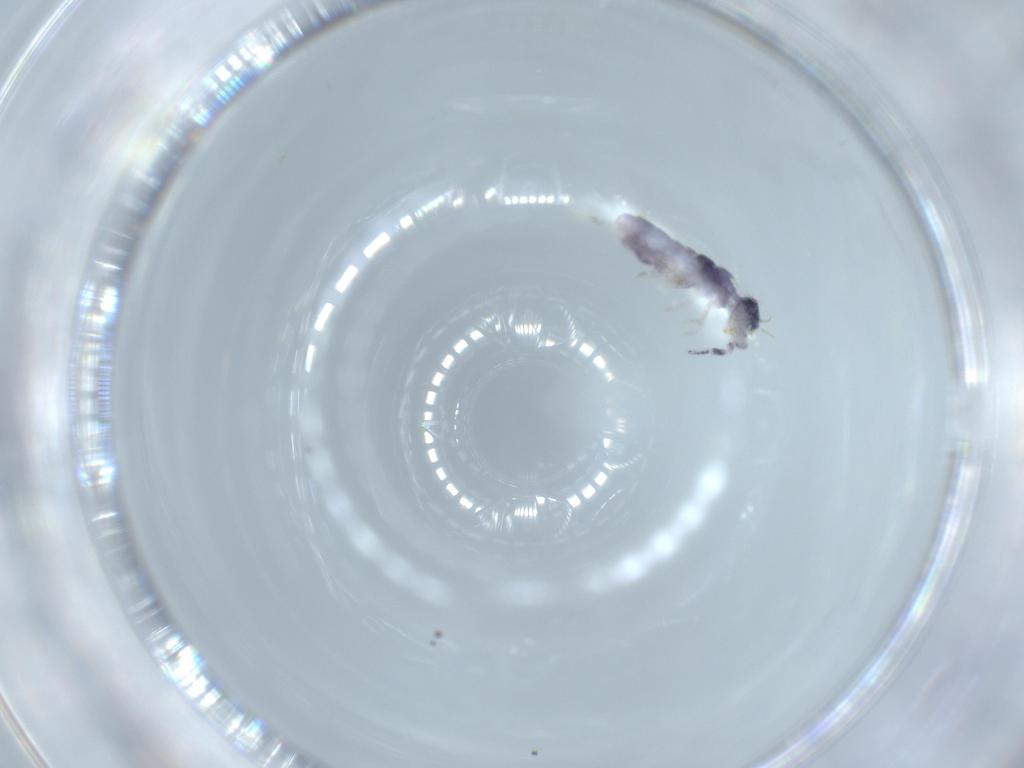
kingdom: Animalia
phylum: Arthropoda
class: Collembola
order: Entomobryomorpha
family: Isotomidae
